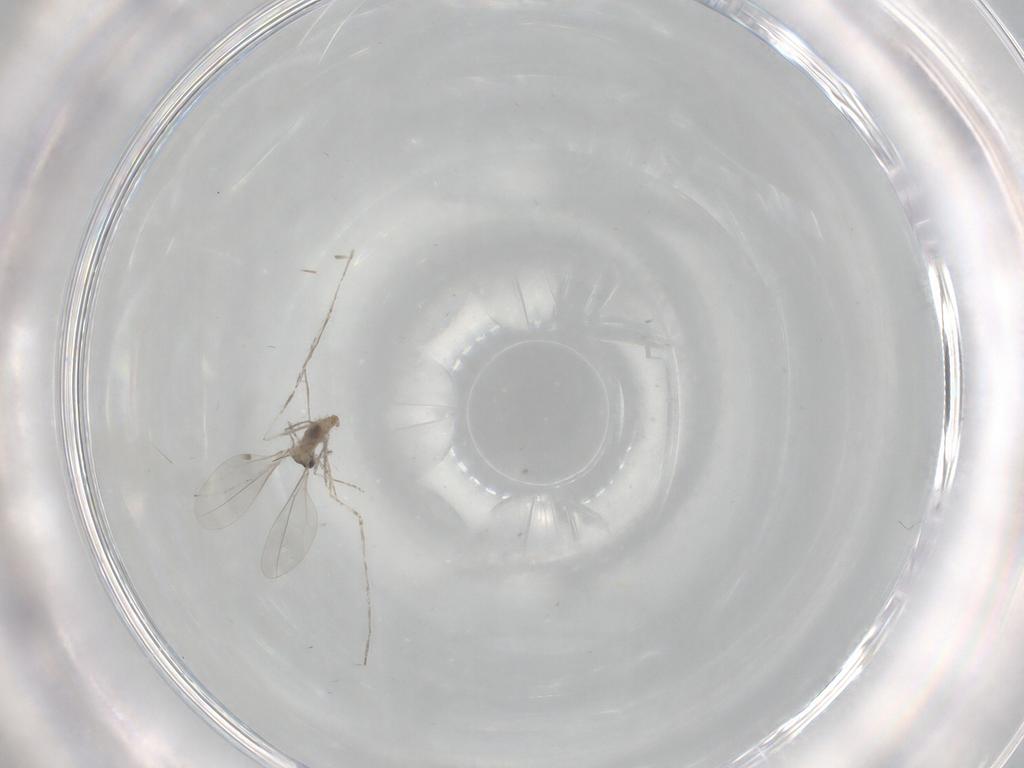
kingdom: Animalia
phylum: Arthropoda
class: Insecta
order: Diptera
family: Cecidomyiidae
